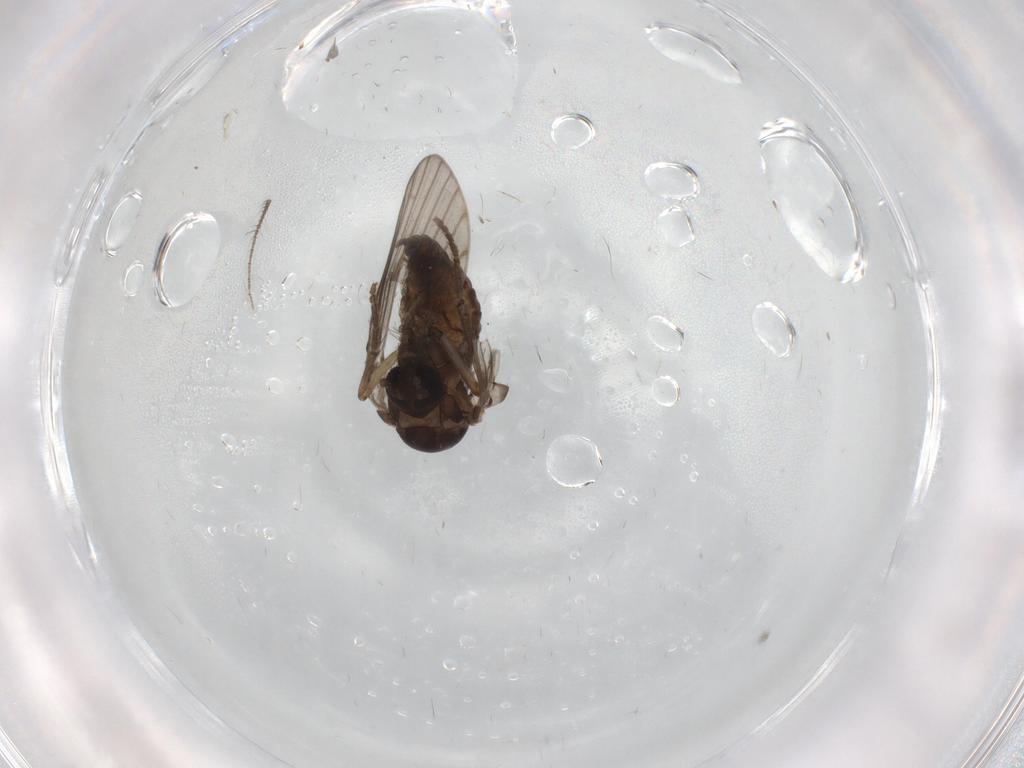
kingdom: Animalia
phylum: Arthropoda
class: Insecta
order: Diptera
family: Psychodidae
